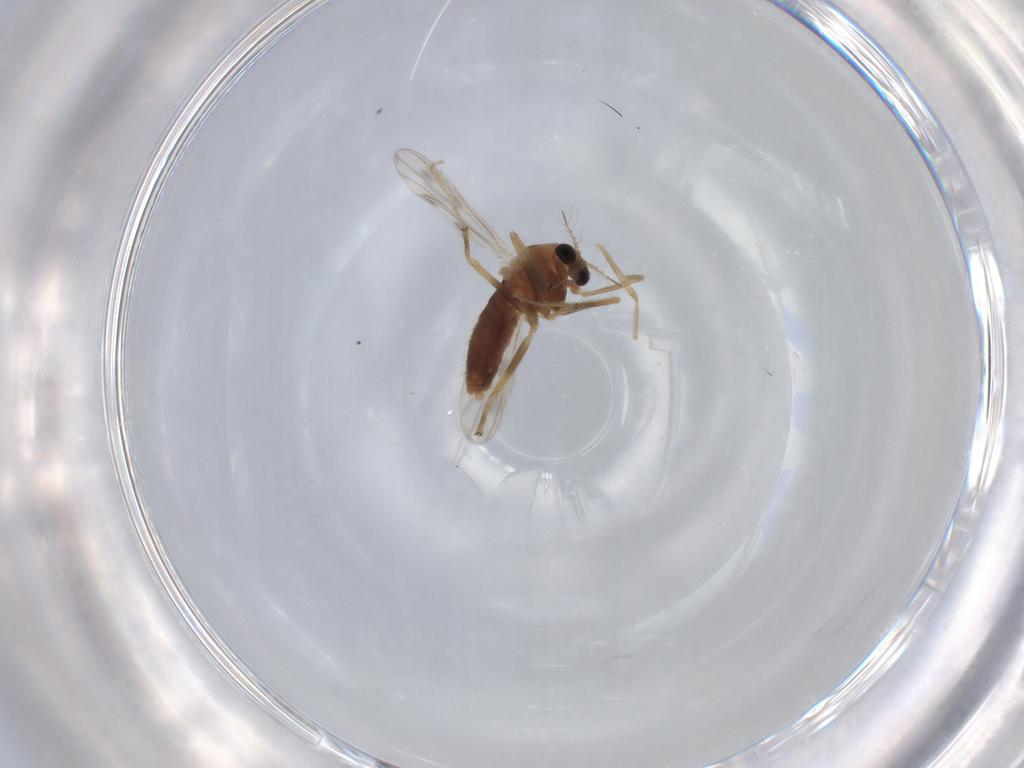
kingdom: Animalia
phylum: Arthropoda
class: Insecta
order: Diptera
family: Chironomidae
